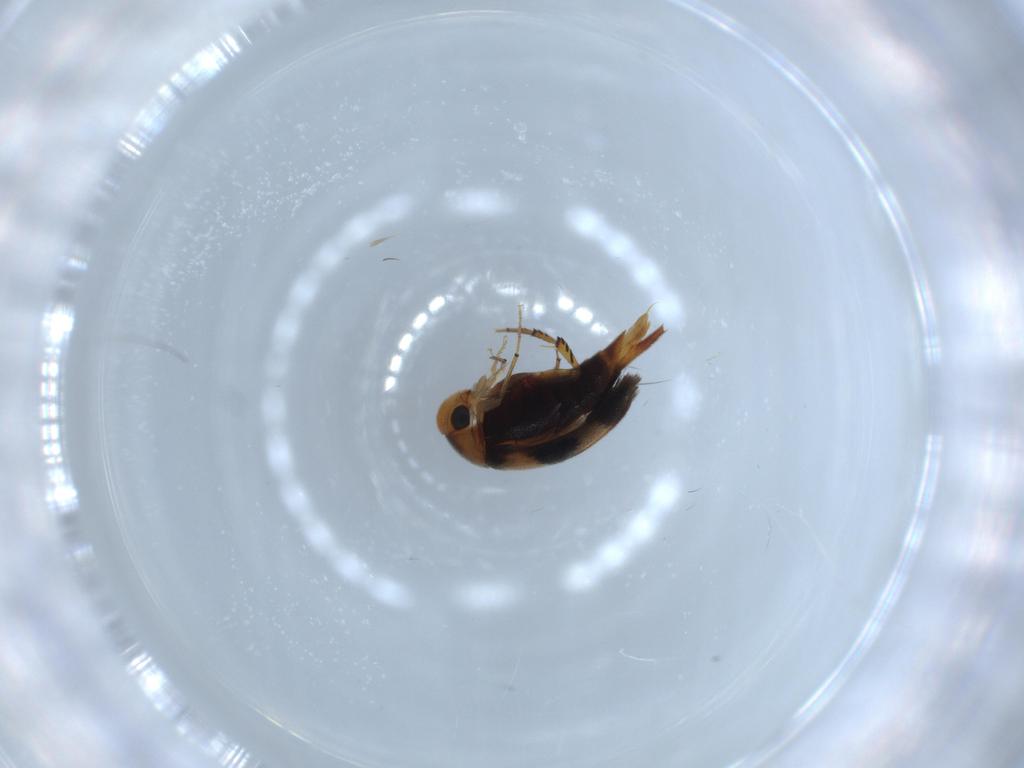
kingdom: Animalia
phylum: Arthropoda
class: Insecta
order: Coleoptera
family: Mordellidae
